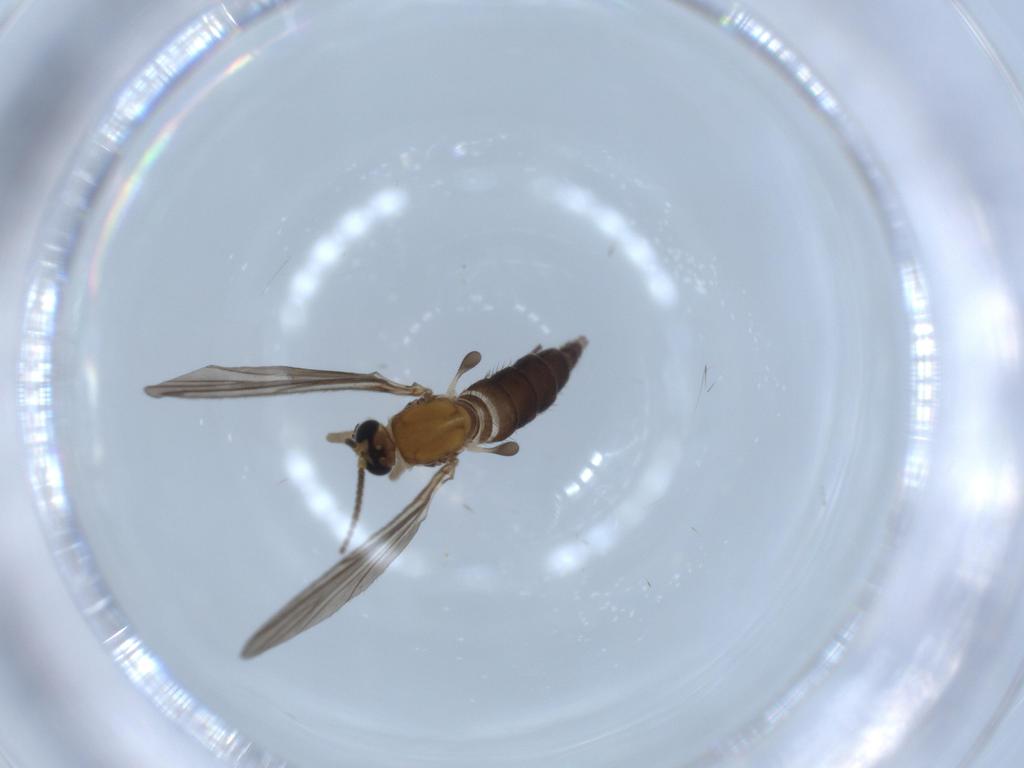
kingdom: Animalia
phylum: Arthropoda
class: Insecta
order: Diptera
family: Sciaridae
